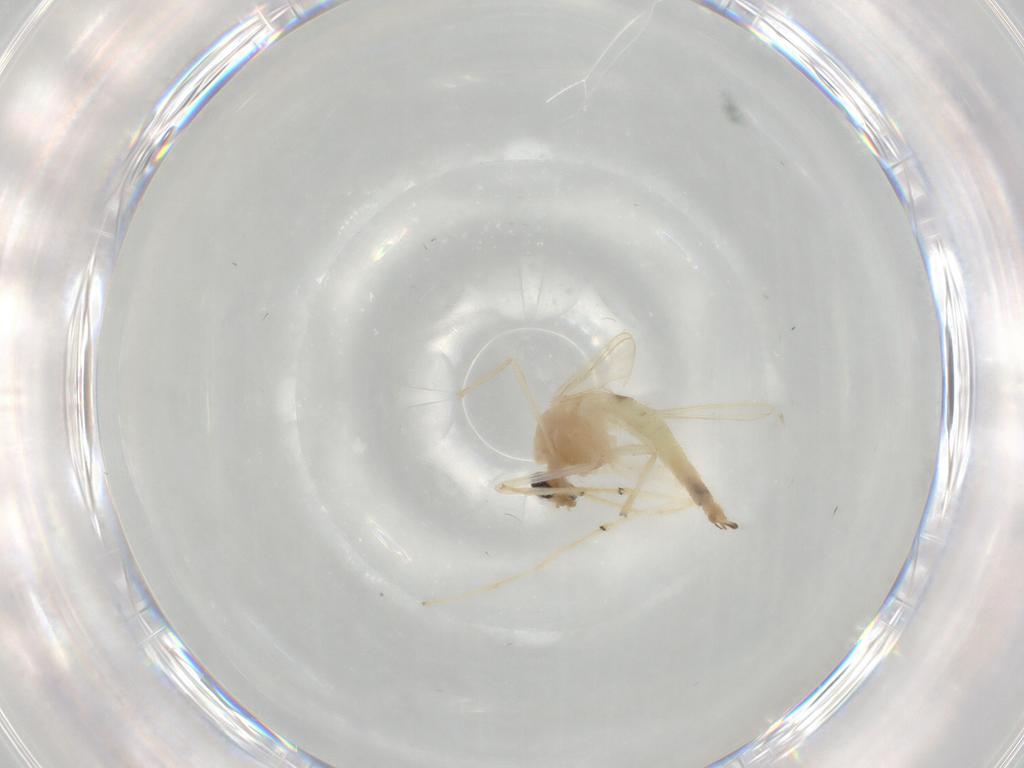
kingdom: Animalia
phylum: Arthropoda
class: Insecta
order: Diptera
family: Chironomidae
